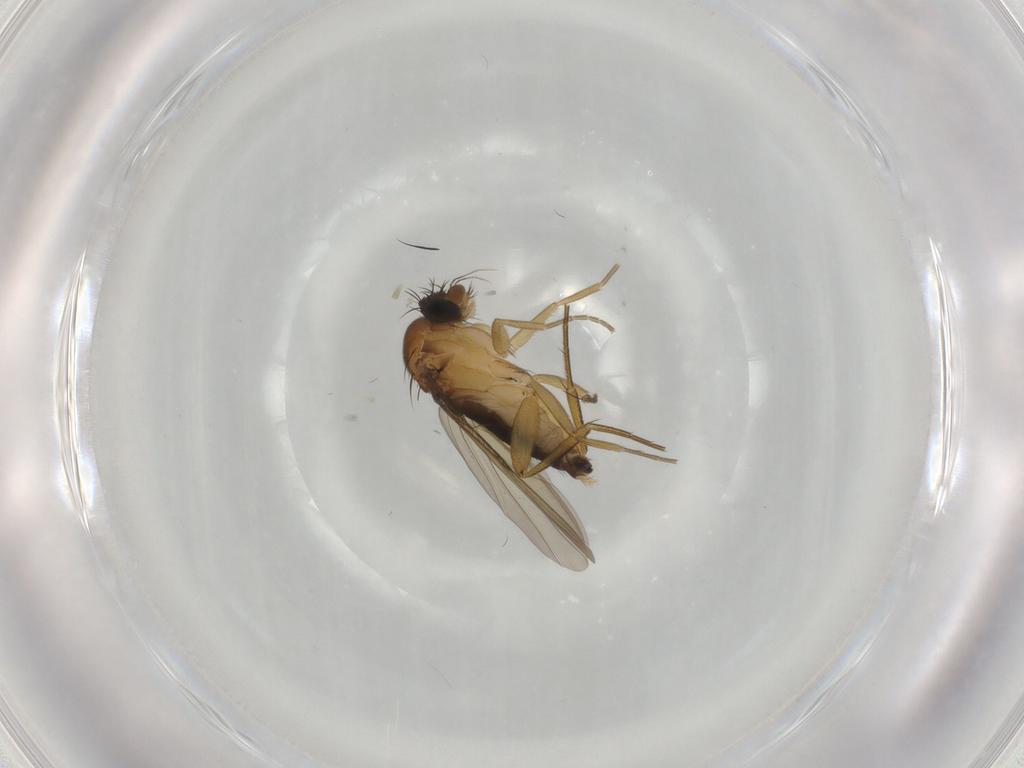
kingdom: Animalia
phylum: Arthropoda
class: Insecta
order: Diptera
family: Phoridae
